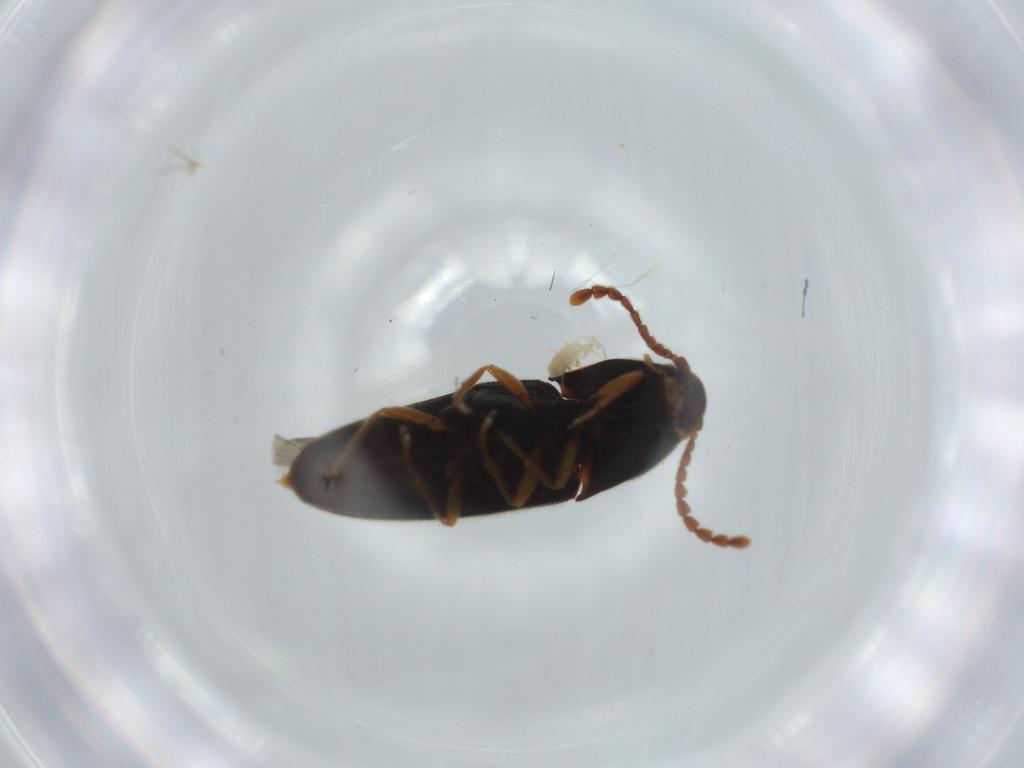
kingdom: Animalia
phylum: Arthropoda
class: Insecta
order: Coleoptera
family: Elateridae
